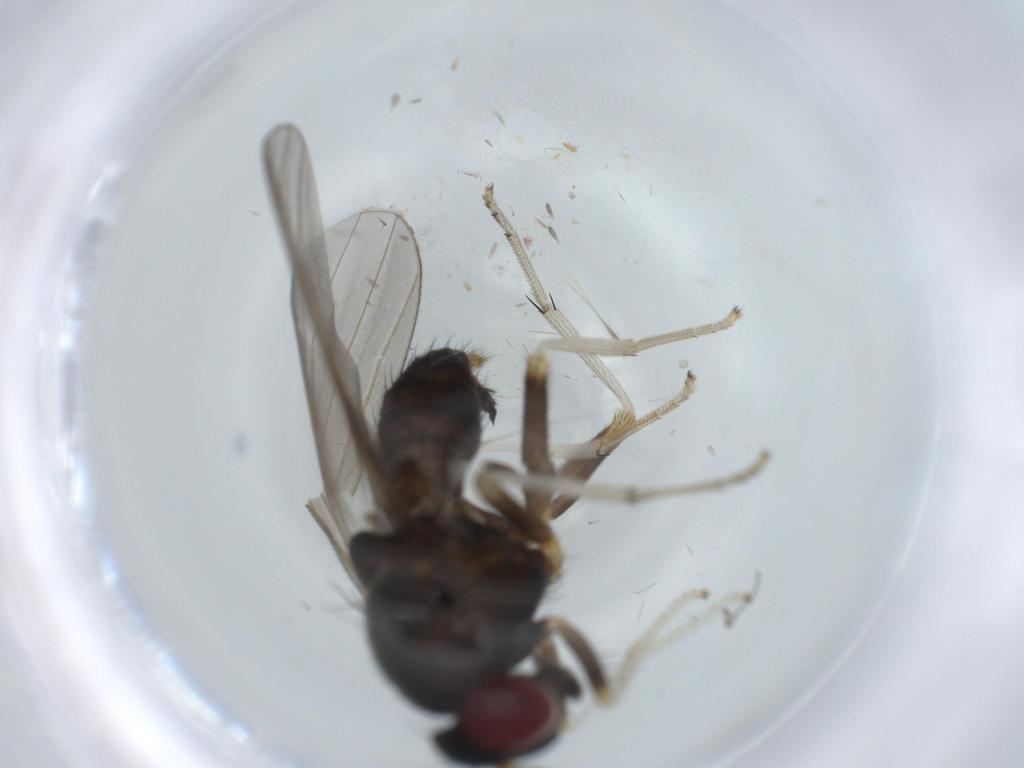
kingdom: Animalia
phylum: Arthropoda
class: Insecta
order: Diptera
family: Sciaridae
